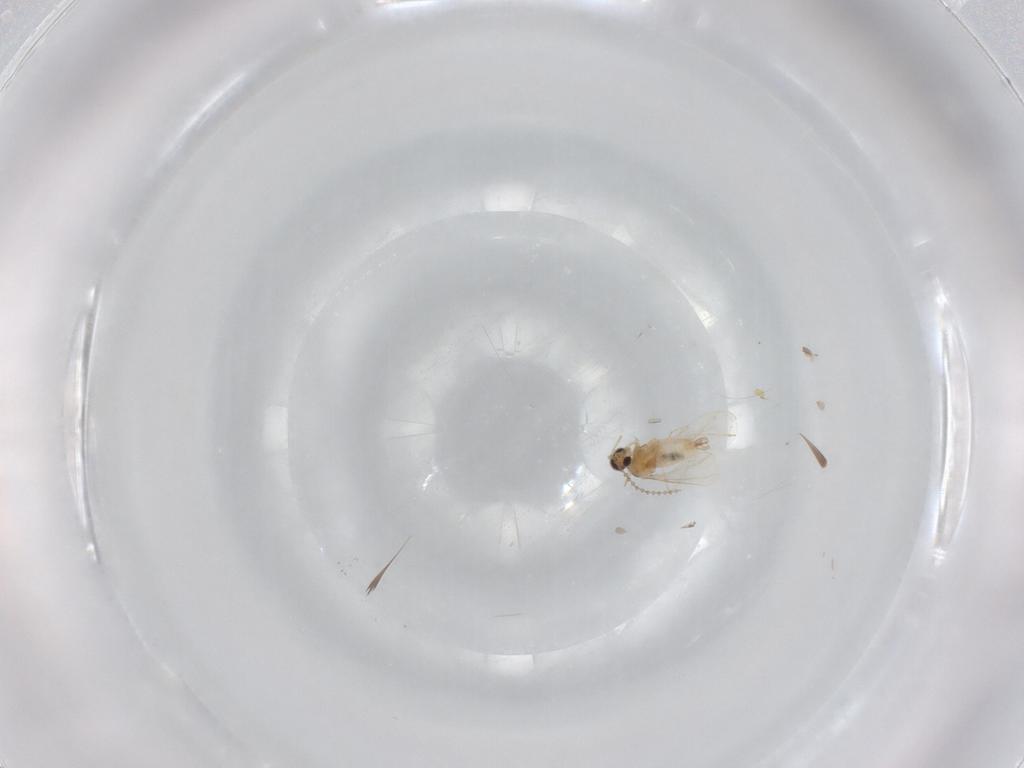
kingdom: Animalia
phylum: Arthropoda
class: Insecta
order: Diptera
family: Cecidomyiidae
